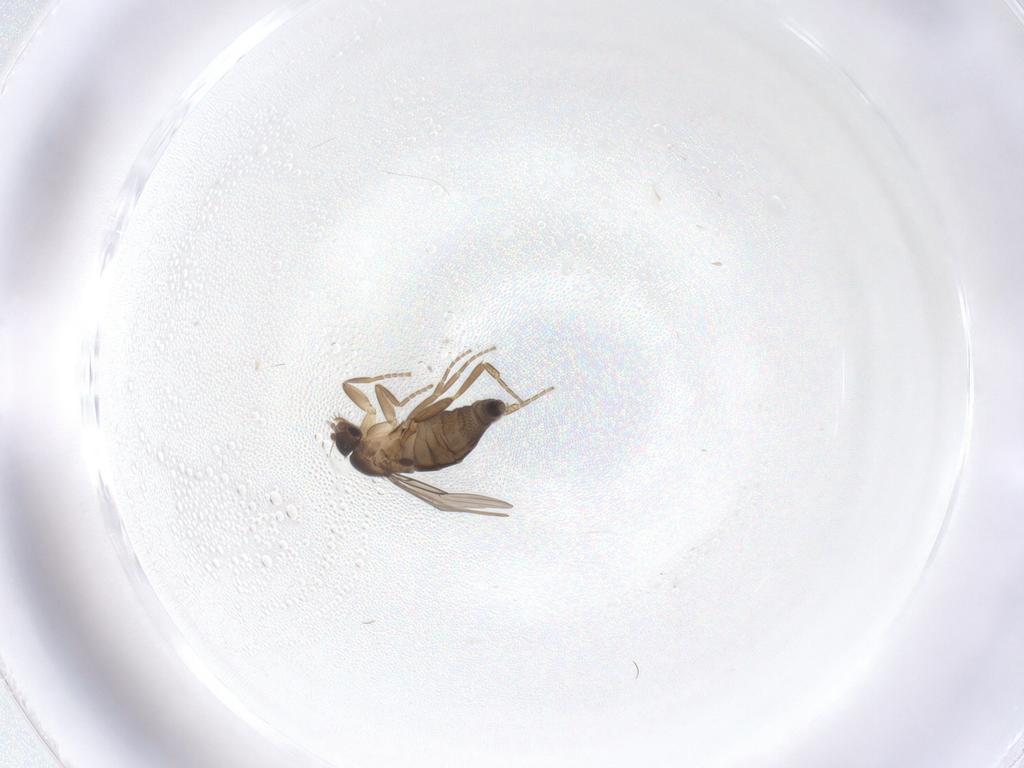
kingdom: Animalia
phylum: Arthropoda
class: Insecta
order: Diptera
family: Phoridae
